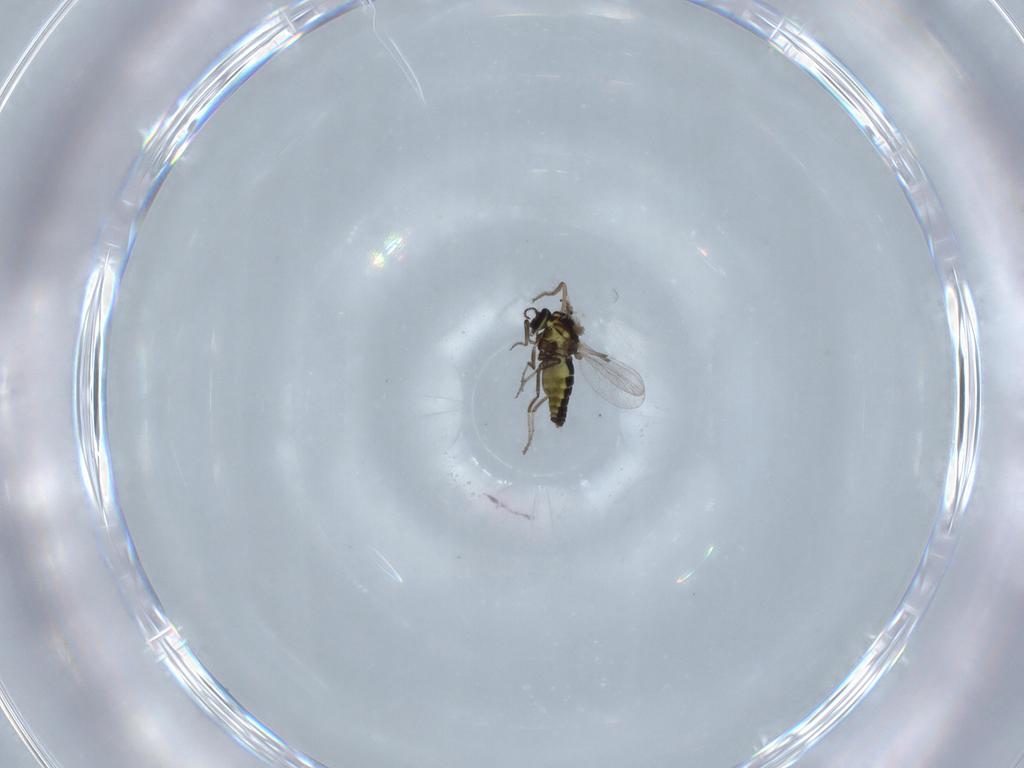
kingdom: Animalia
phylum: Arthropoda
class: Insecta
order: Diptera
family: Ceratopogonidae
